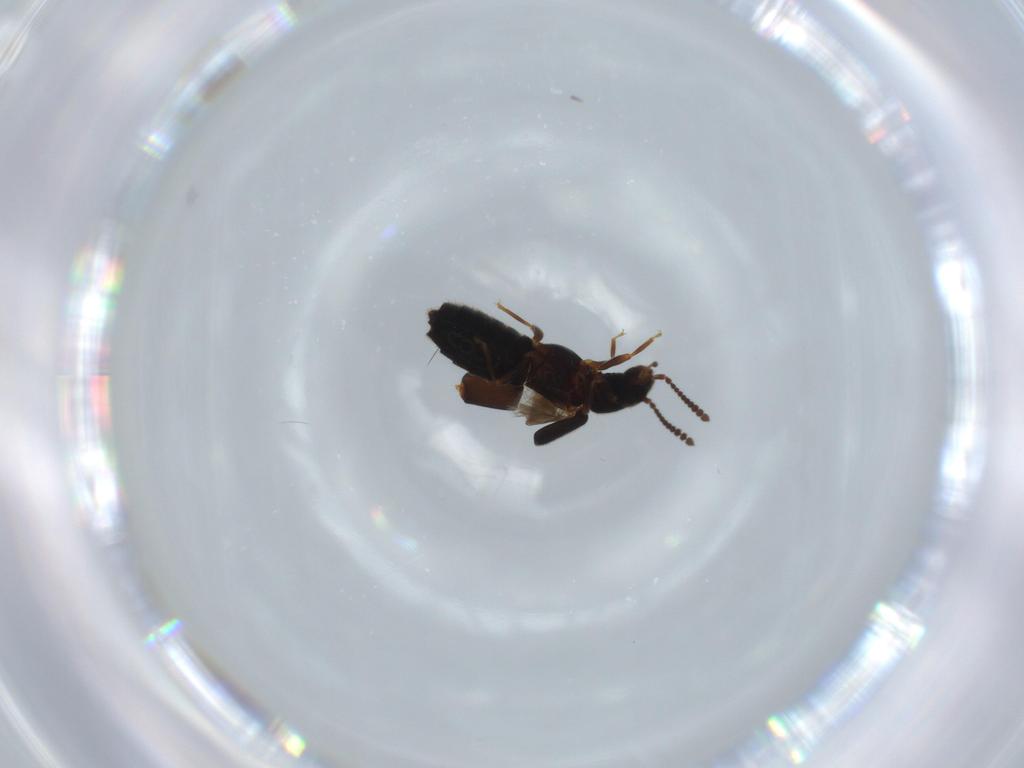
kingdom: Animalia
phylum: Arthropoda
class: Insecta
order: Coleoptera
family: Staphylinidae
